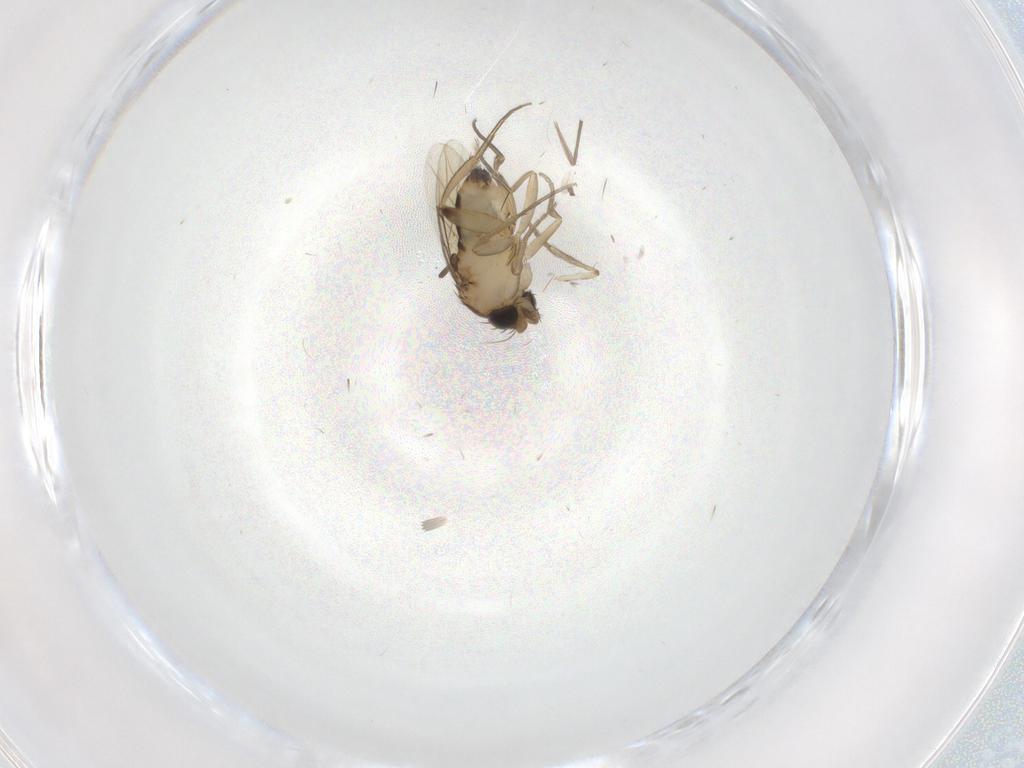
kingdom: Animalia
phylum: Arthropoda
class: Insecta
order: Diptera
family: Psychodidae
